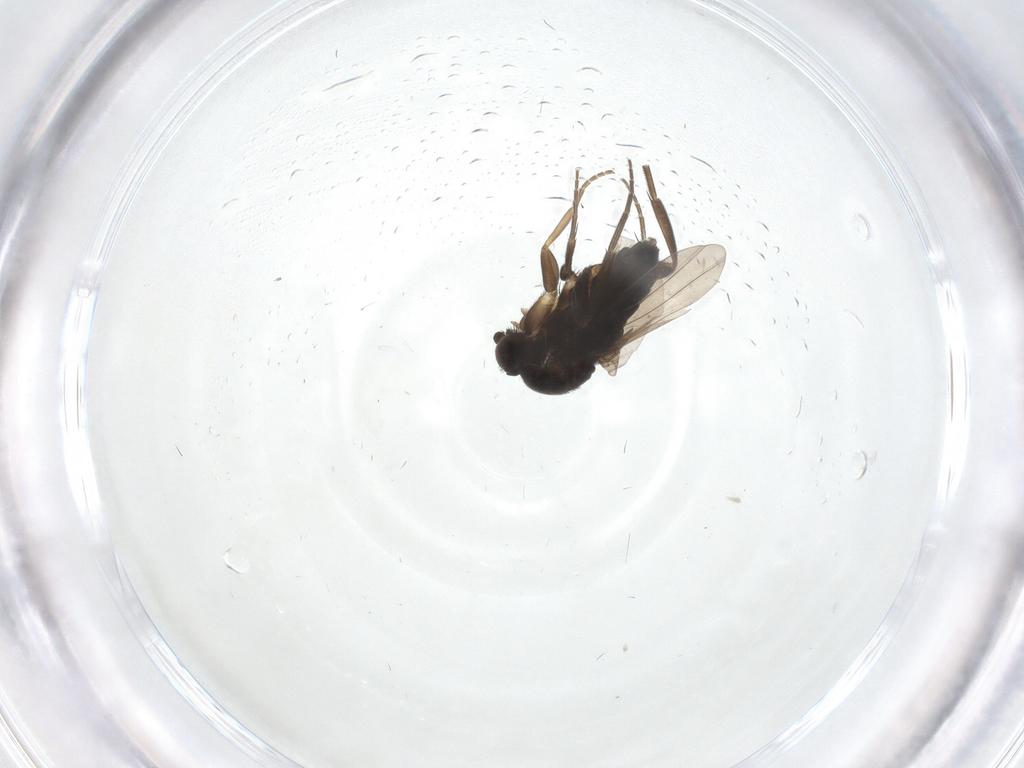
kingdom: Animalia
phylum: Arthropoda
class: Insecta
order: Diptera
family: Phoridae
